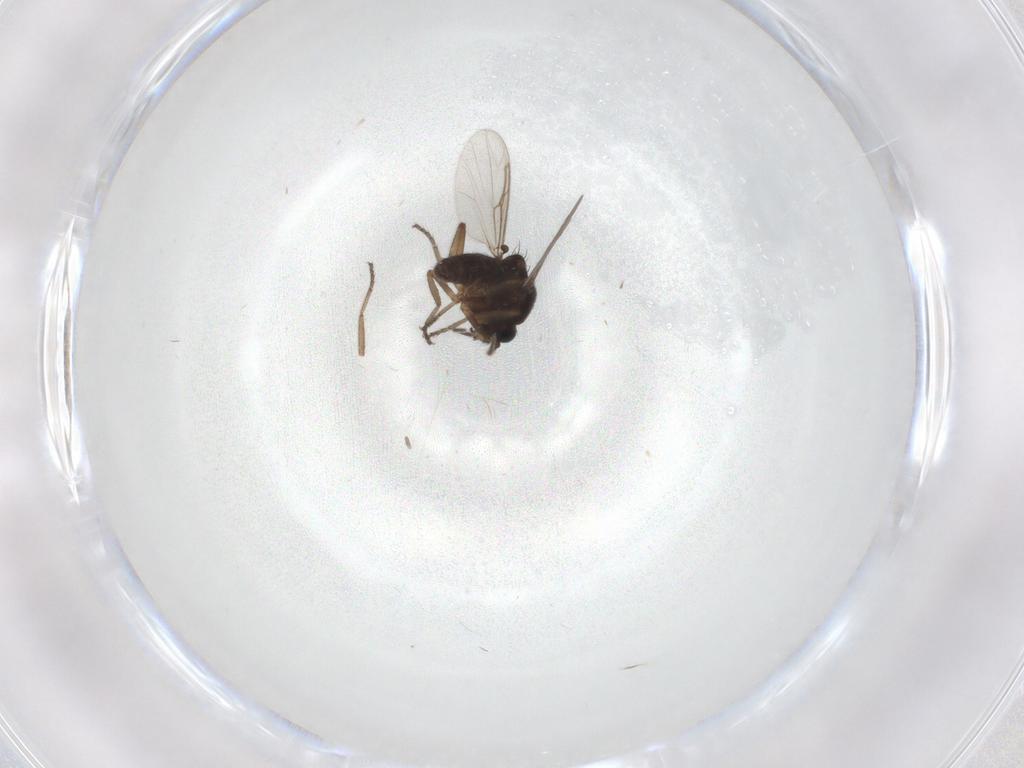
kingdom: Animalia
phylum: Arthropoda
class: Insecta
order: Diptera
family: Ceratopogonidae
